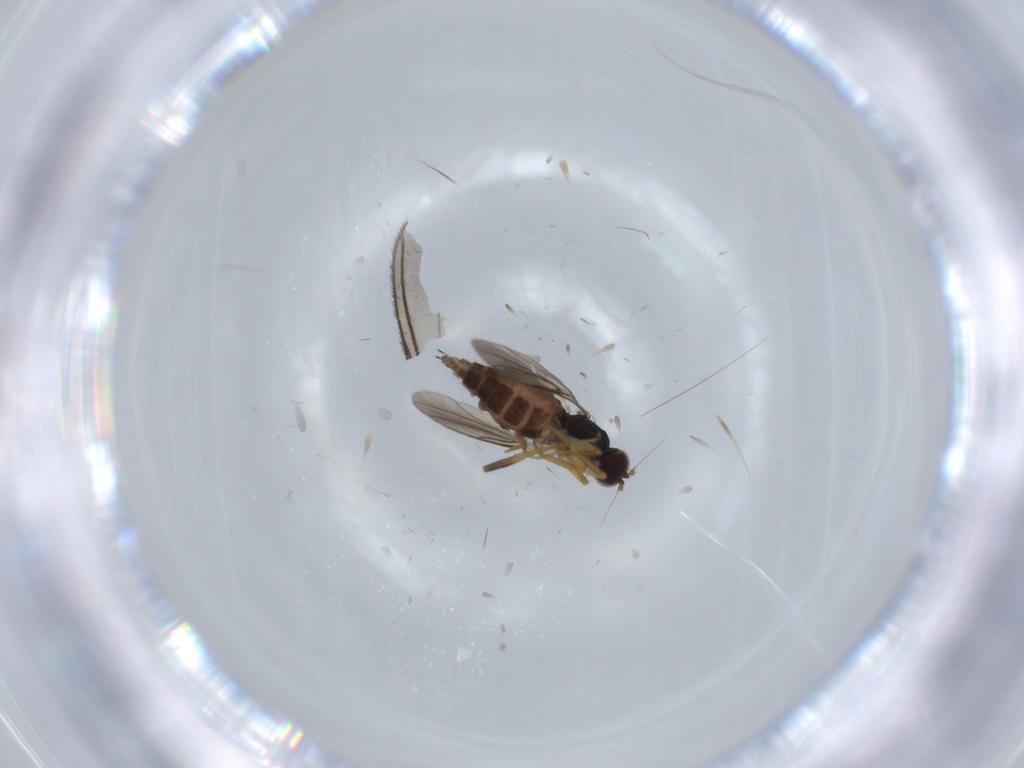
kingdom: Animalia
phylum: Arthropoda
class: Insecta
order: Diptera
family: Hybotidae
